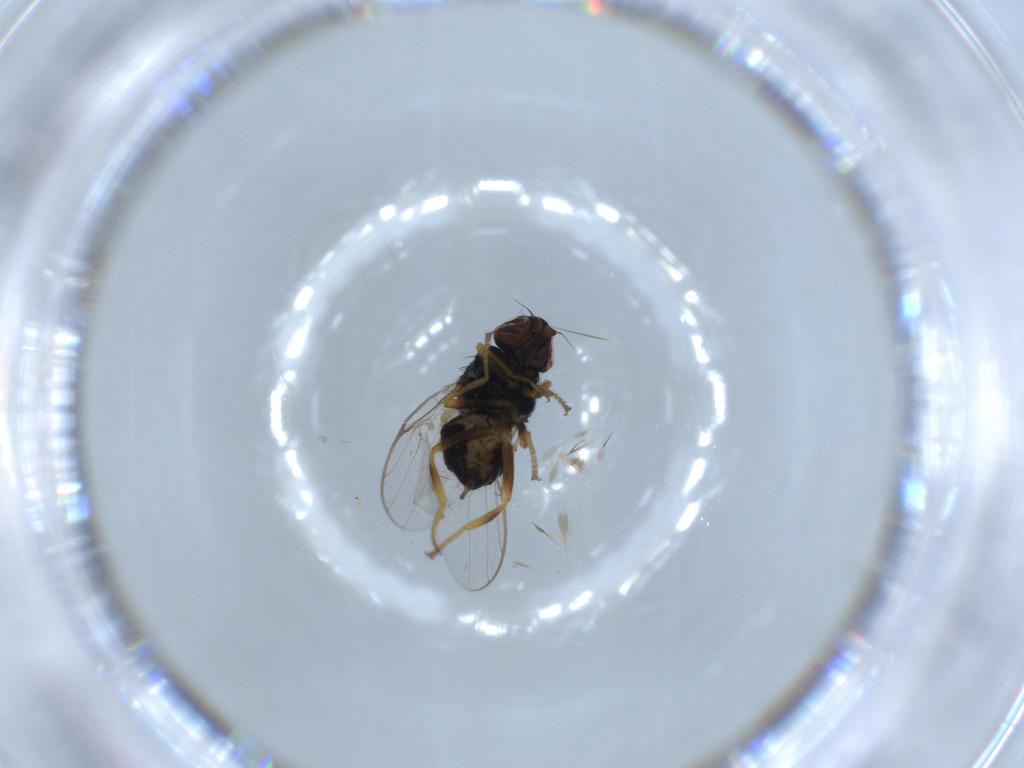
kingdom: Animalia
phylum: Arthropoda
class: Insecta
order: Diptera
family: Chloropidae
